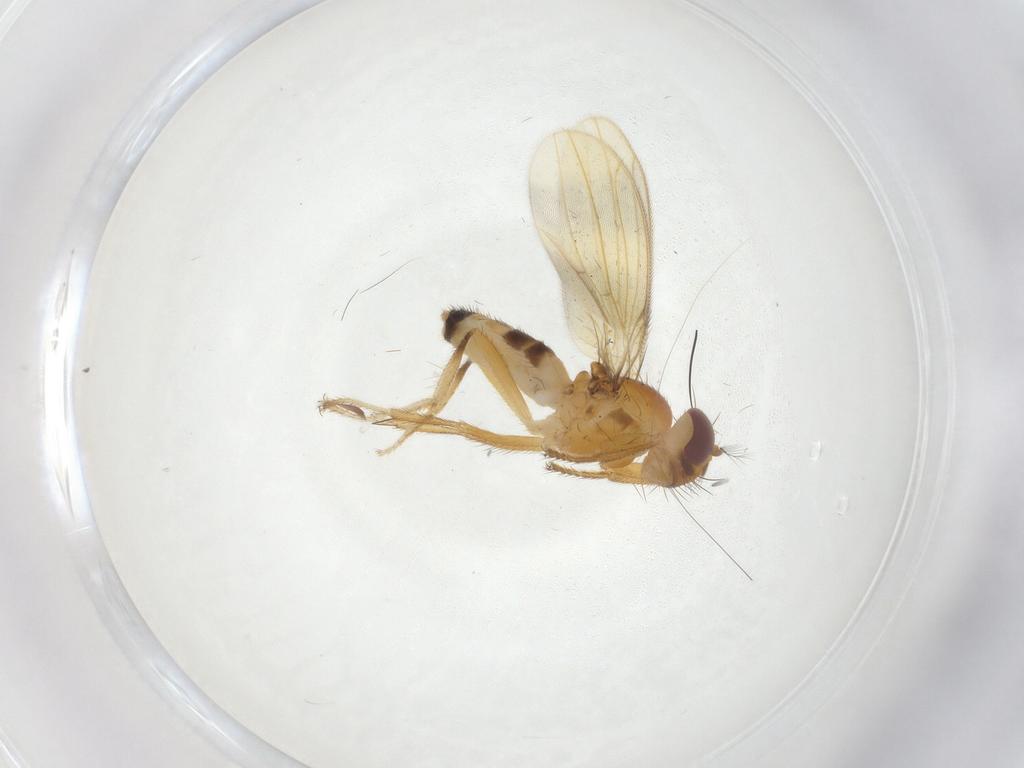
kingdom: Animalia
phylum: Arthropoda
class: Insecta
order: Diptera
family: Periscelididae
